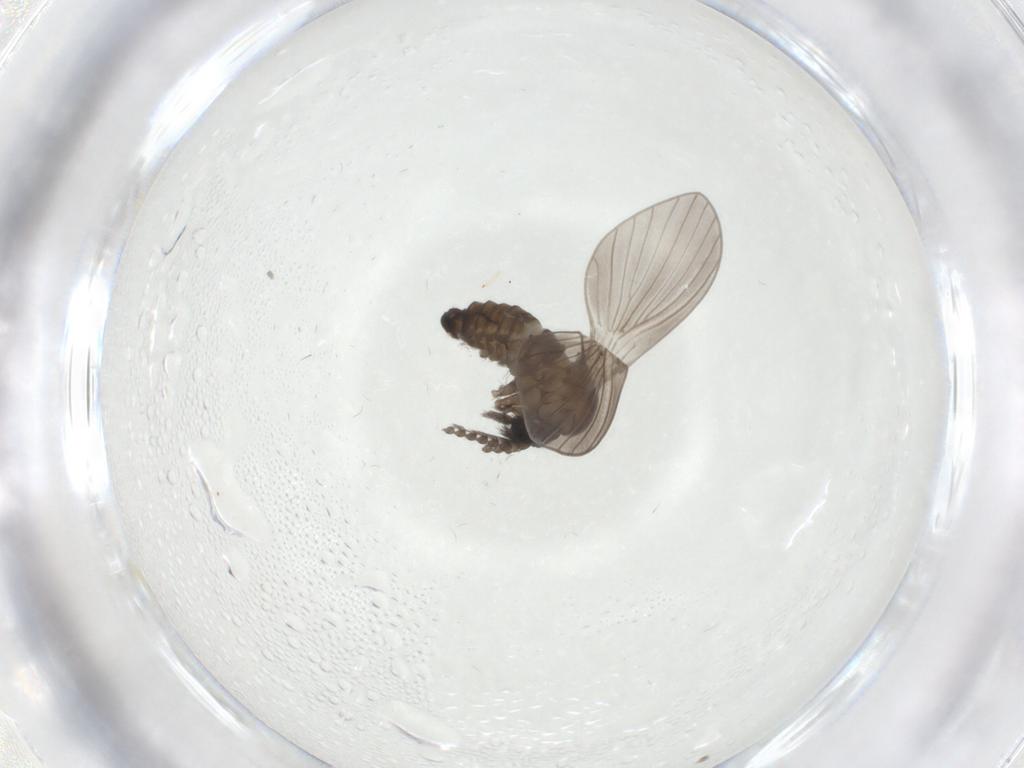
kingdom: Animalia
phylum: Arthropoda
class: Insecta
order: Diptera
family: Psychodidae
